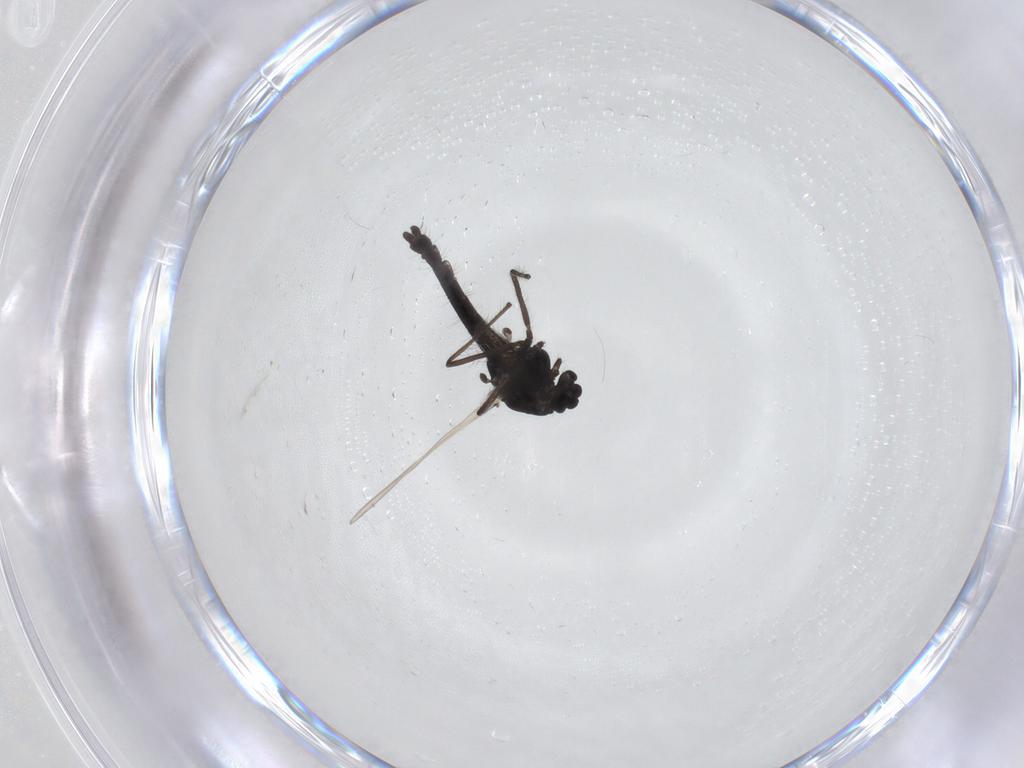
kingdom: Animalia
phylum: Arthropoda
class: Insecta
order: Diptera
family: Chironomidae
